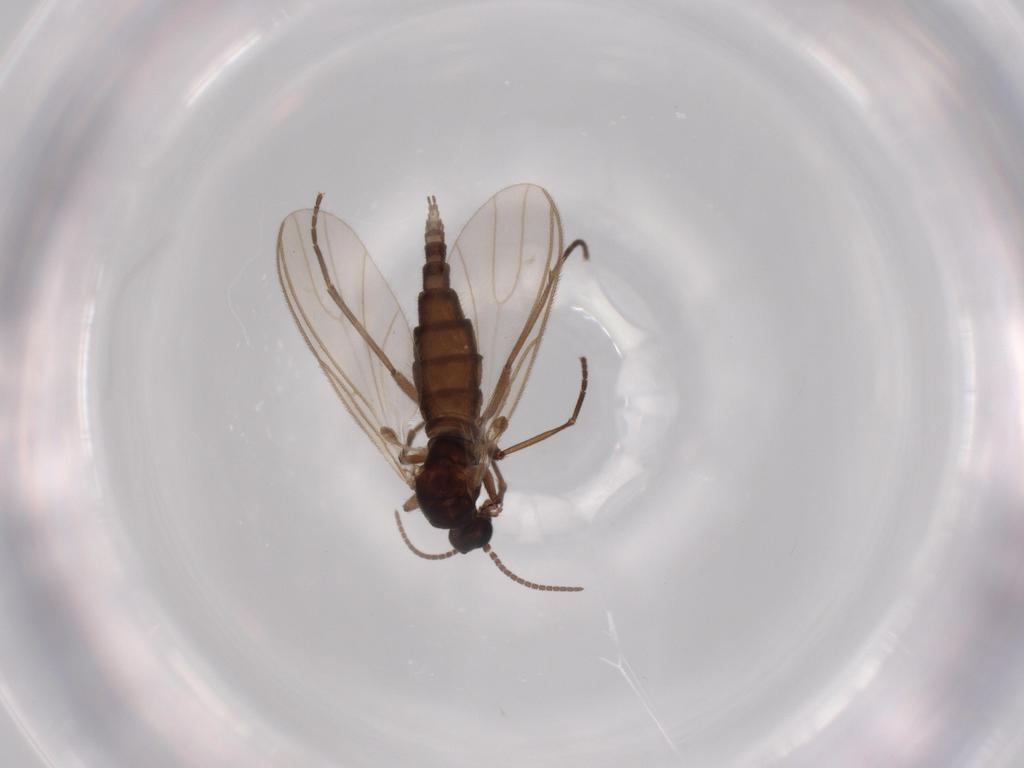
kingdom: Animalia
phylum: Arthropoda
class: Insecta
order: Diptera
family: Sciaridae
